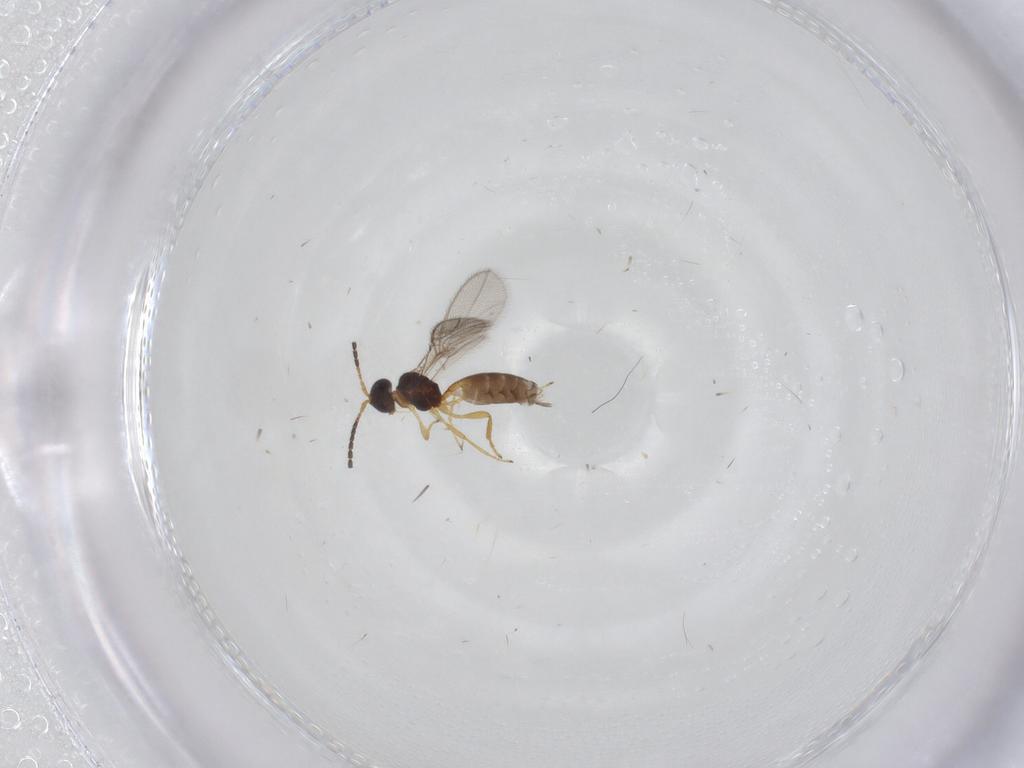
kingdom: Animalia
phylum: Arthropoda
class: Insecta
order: Hymenoptera
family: Braconidae
